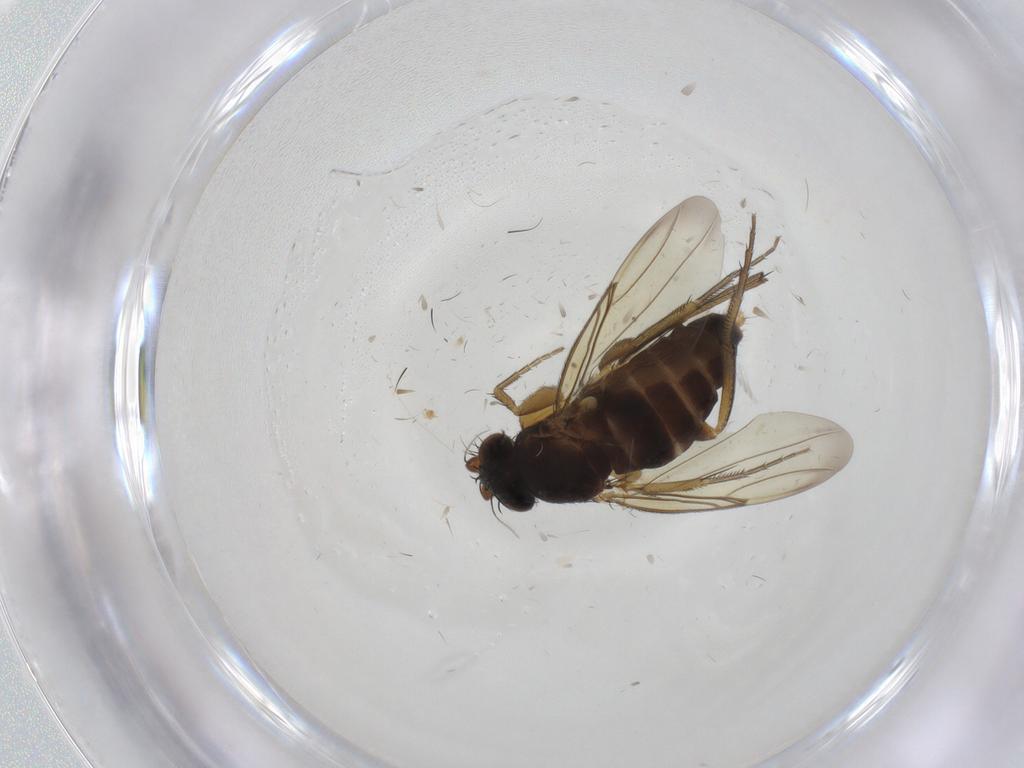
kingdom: Animalia
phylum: Arthropoda
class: Insecta
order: Diptera
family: Phoridae
